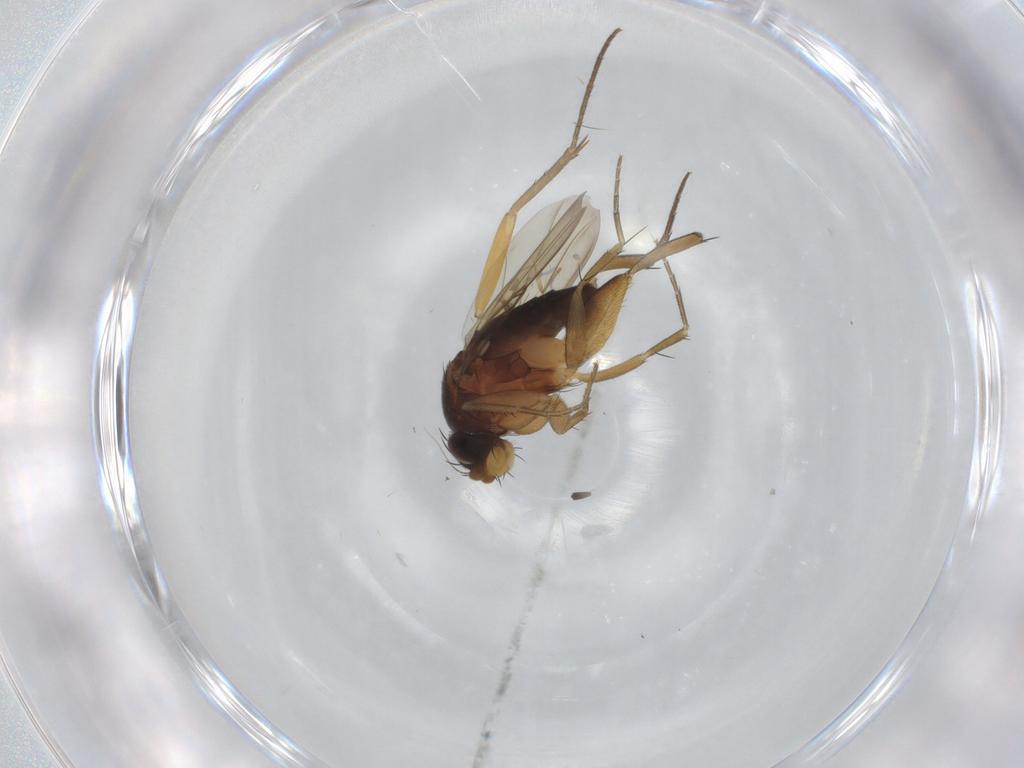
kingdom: Animalia
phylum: Arthropoda
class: Insecta
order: Diptera
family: Phoridae
